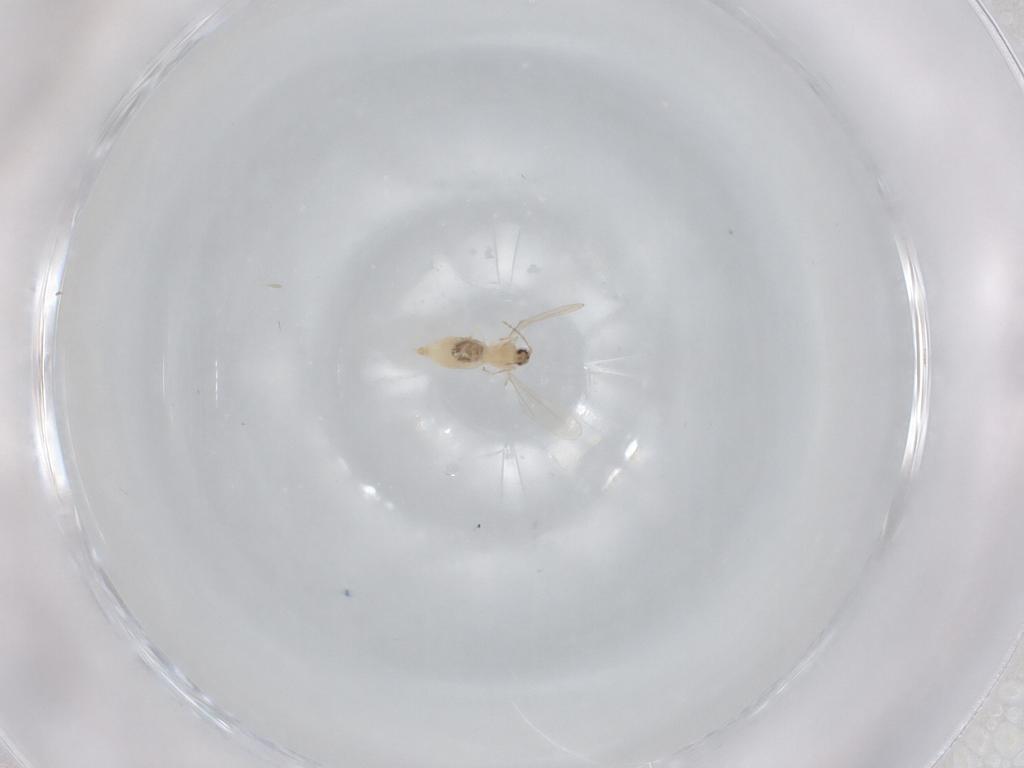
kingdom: Animalia
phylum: Arthropoda
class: Insecta
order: Diptera
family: Cecidomyiidae
